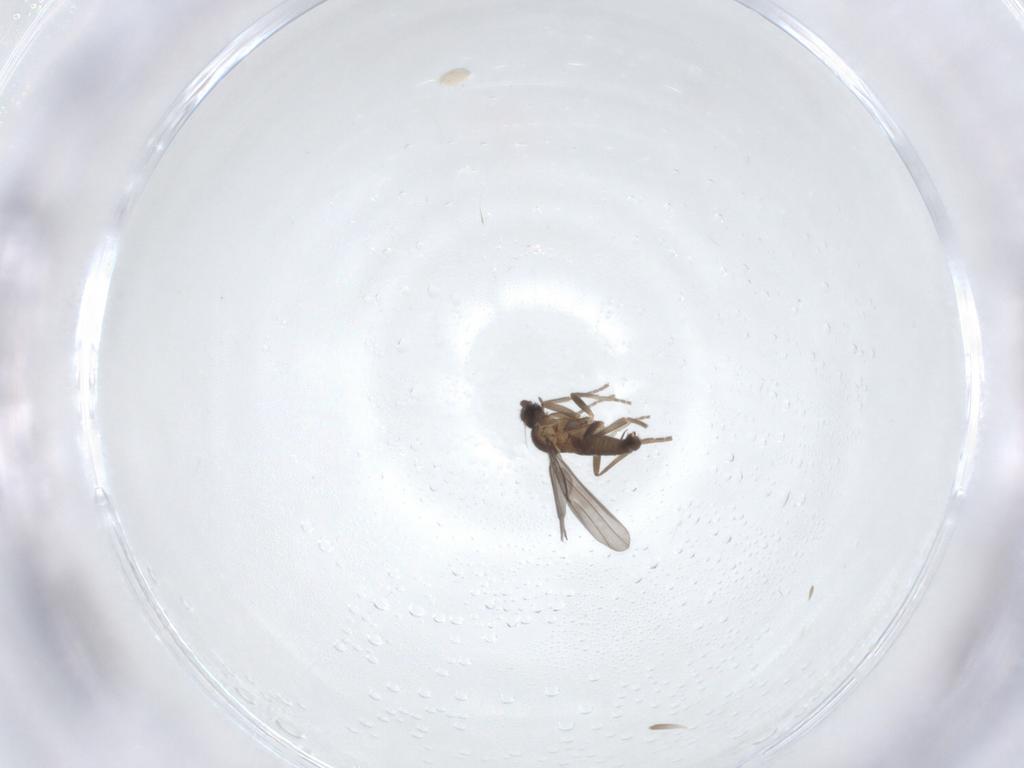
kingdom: Animalia
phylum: Arthropoda
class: Insecta
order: Diptera
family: Phoridae
